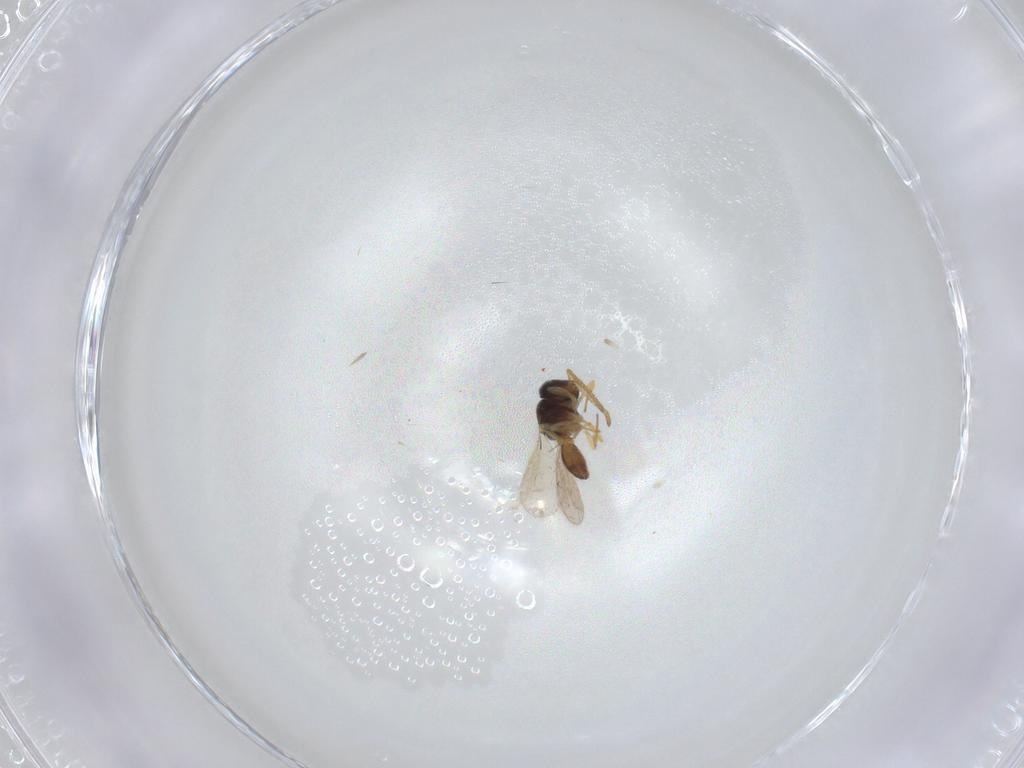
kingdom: Animalia
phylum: Arthropoda
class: Insecta
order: Hymenoptera
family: Scelionidae
